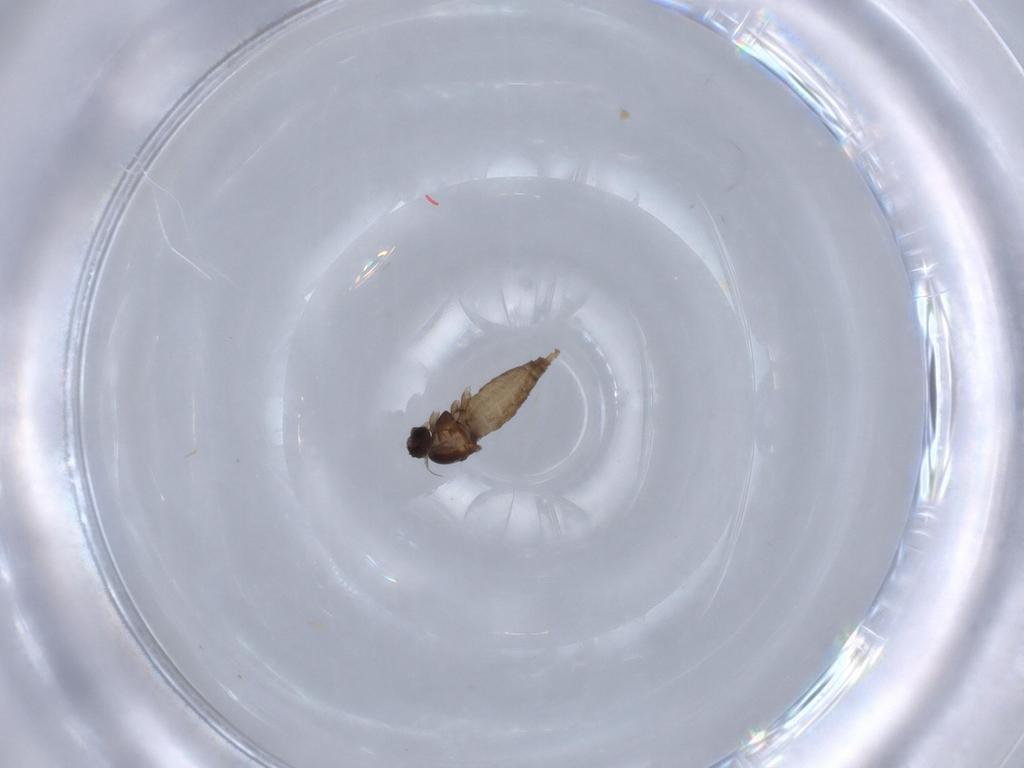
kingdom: Animalia
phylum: Arthropoda
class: Insecta
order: Diptera
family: Cecidomyiidae
